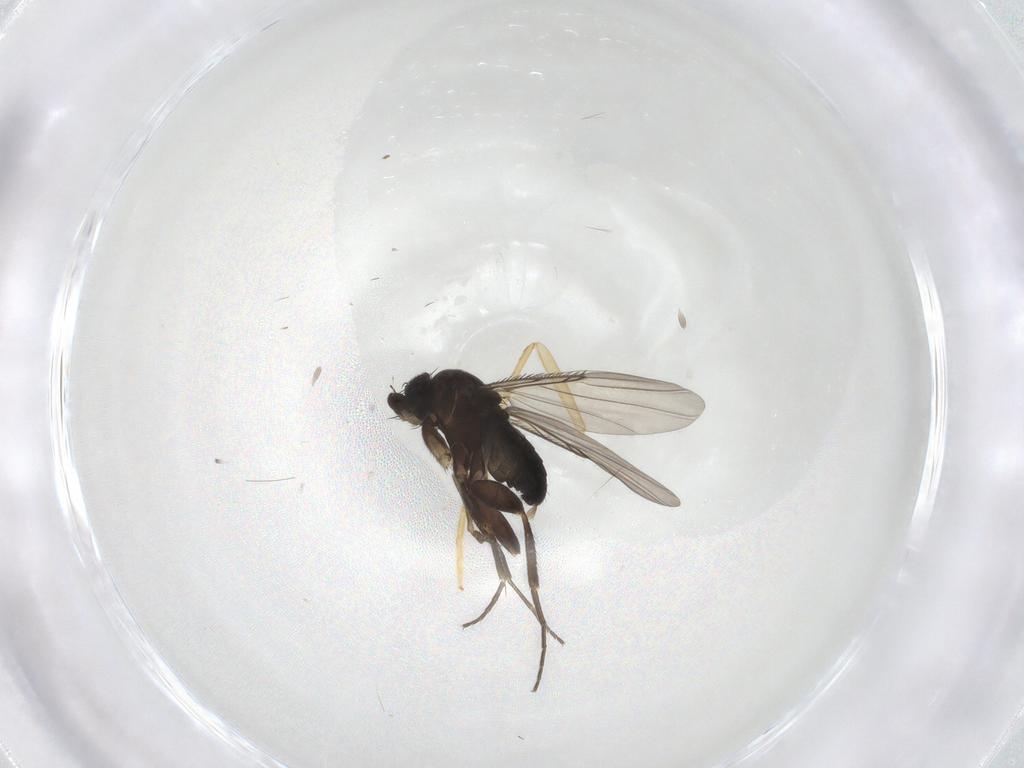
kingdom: Animalia
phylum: Arthropoda
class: Insecta
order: Diptera
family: Phoridae
